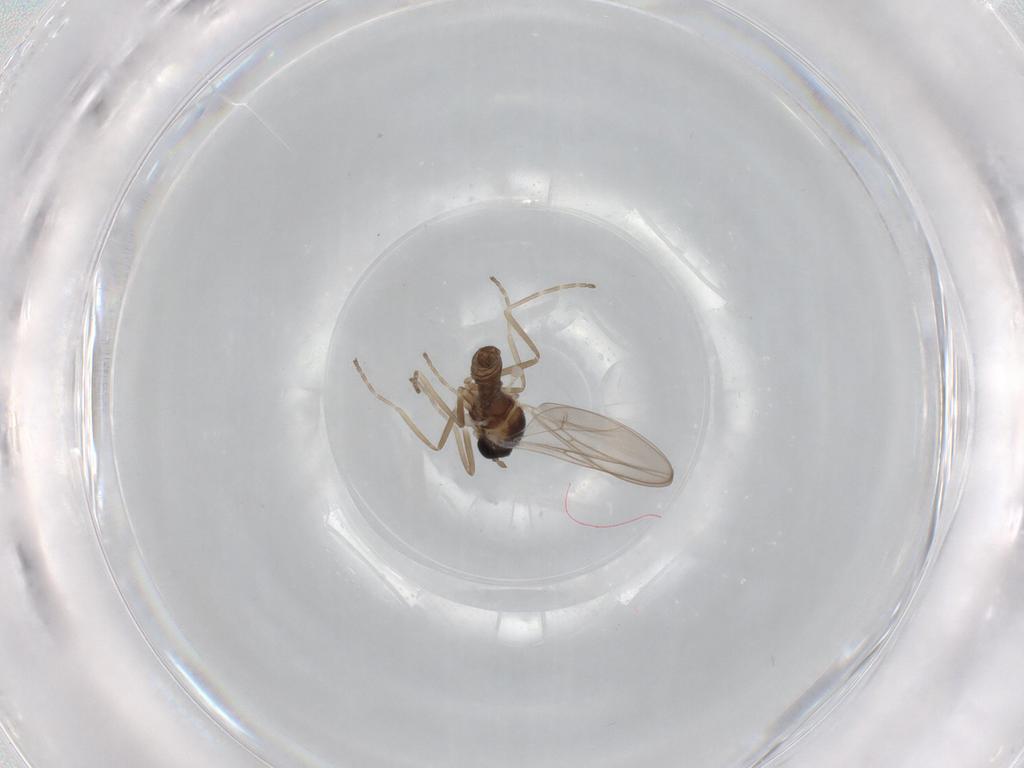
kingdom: Animalia
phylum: Arthropoda
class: Insecta
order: Diptera
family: Cecidomyiidae
